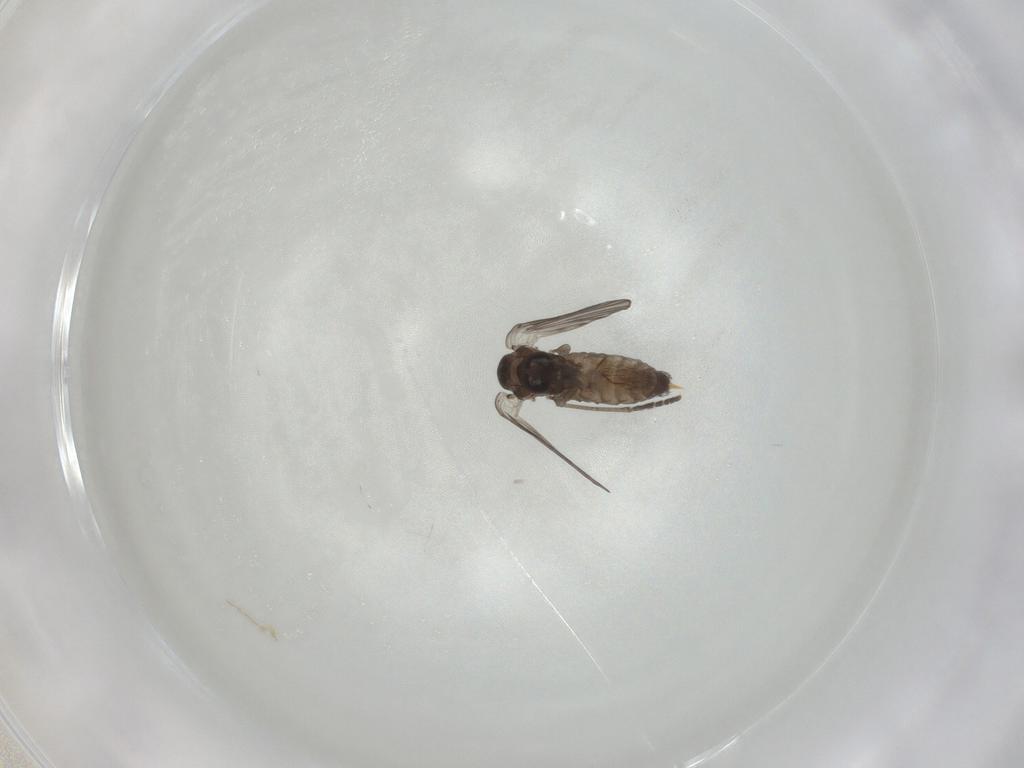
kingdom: Animalia
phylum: Arthropoda
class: Insecta
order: Diptera
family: Psychodidae
